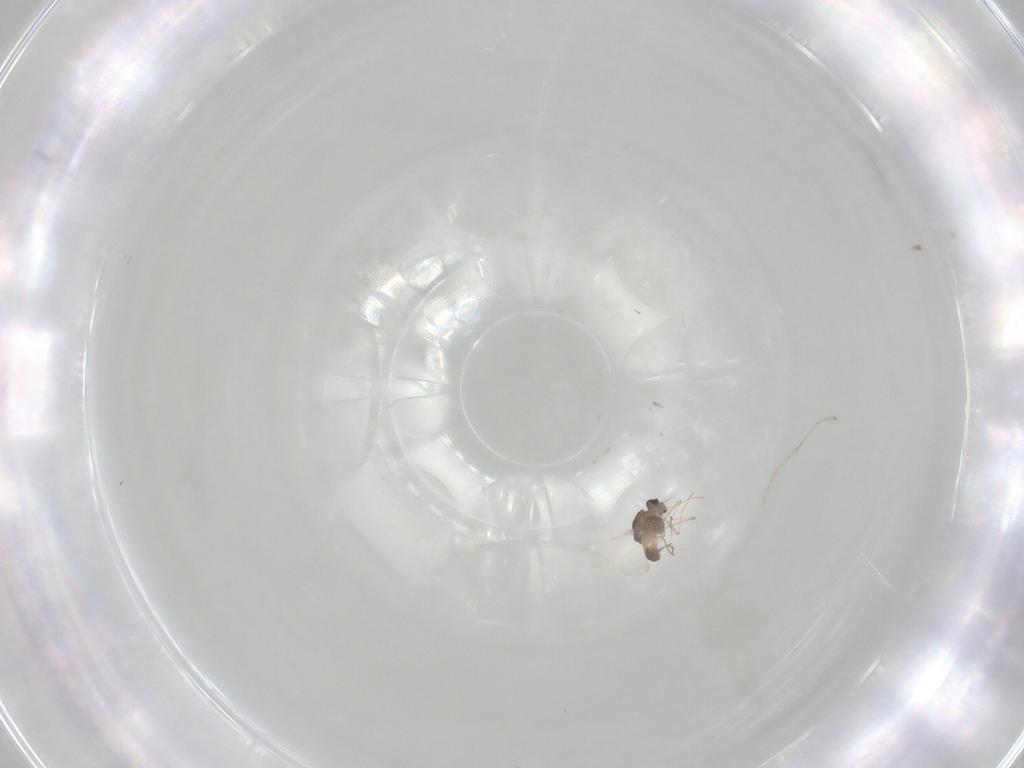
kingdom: Animalia
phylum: Arthropoda
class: Insecta
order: Diptera
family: Chironomidae
